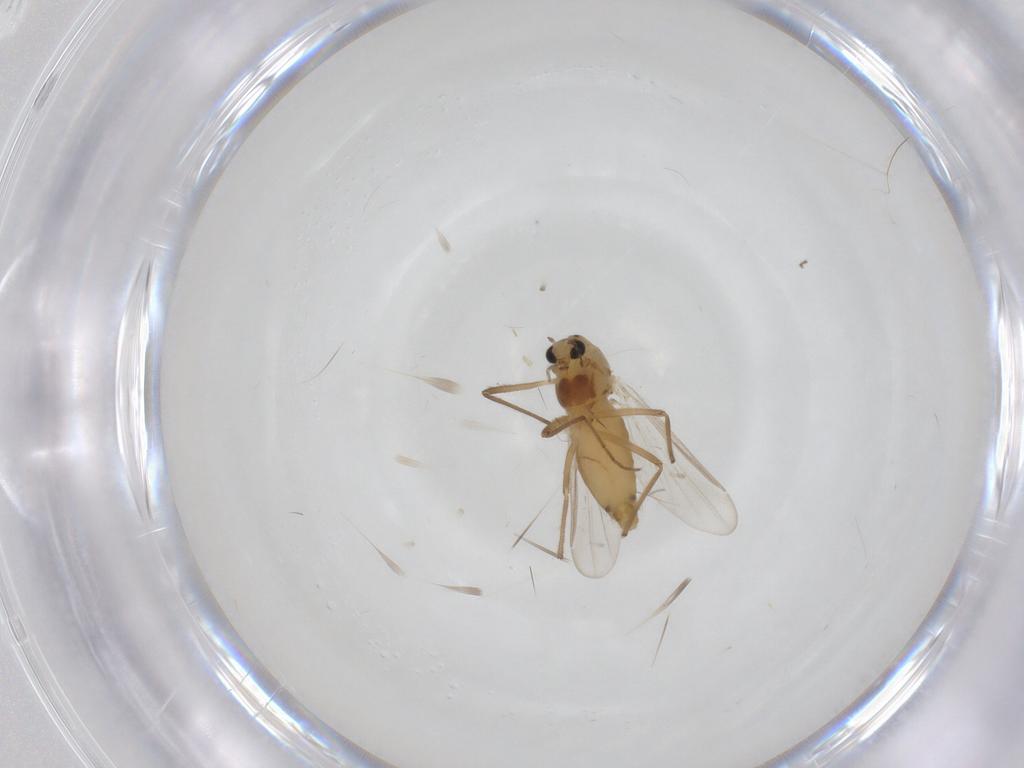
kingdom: Animalia
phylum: Arthropoda
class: Insecta
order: Diptera
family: Chironomidae
